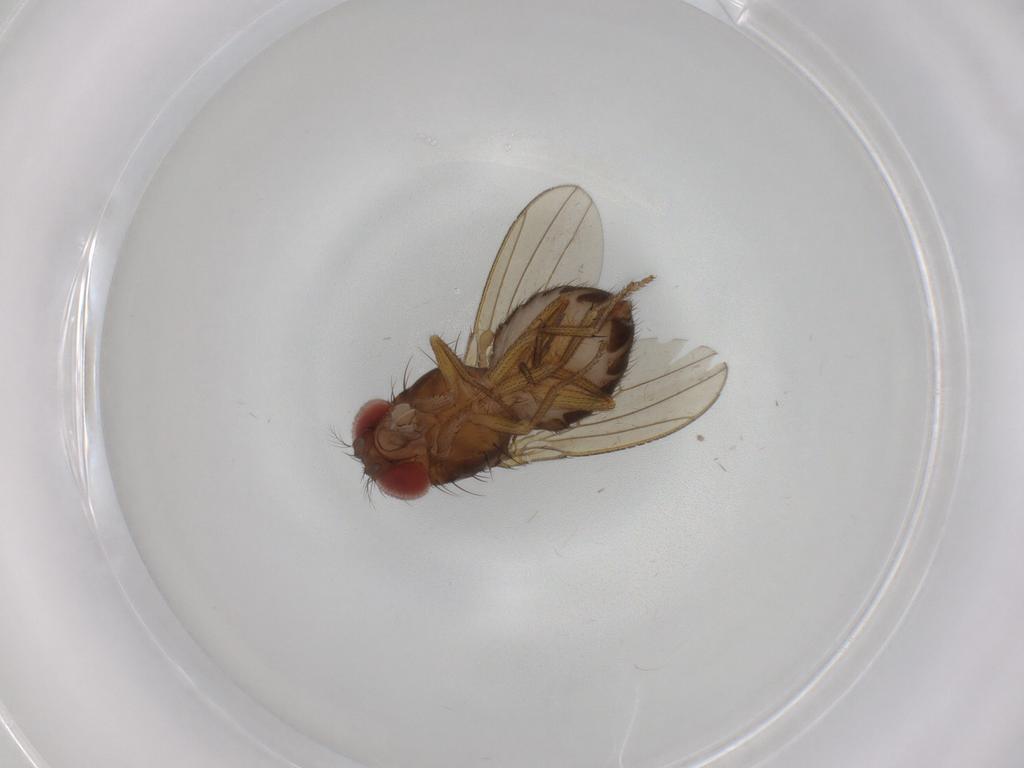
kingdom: Animalia
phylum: Arthropoda
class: Insecta
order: Diptera
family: Drosophilidae
